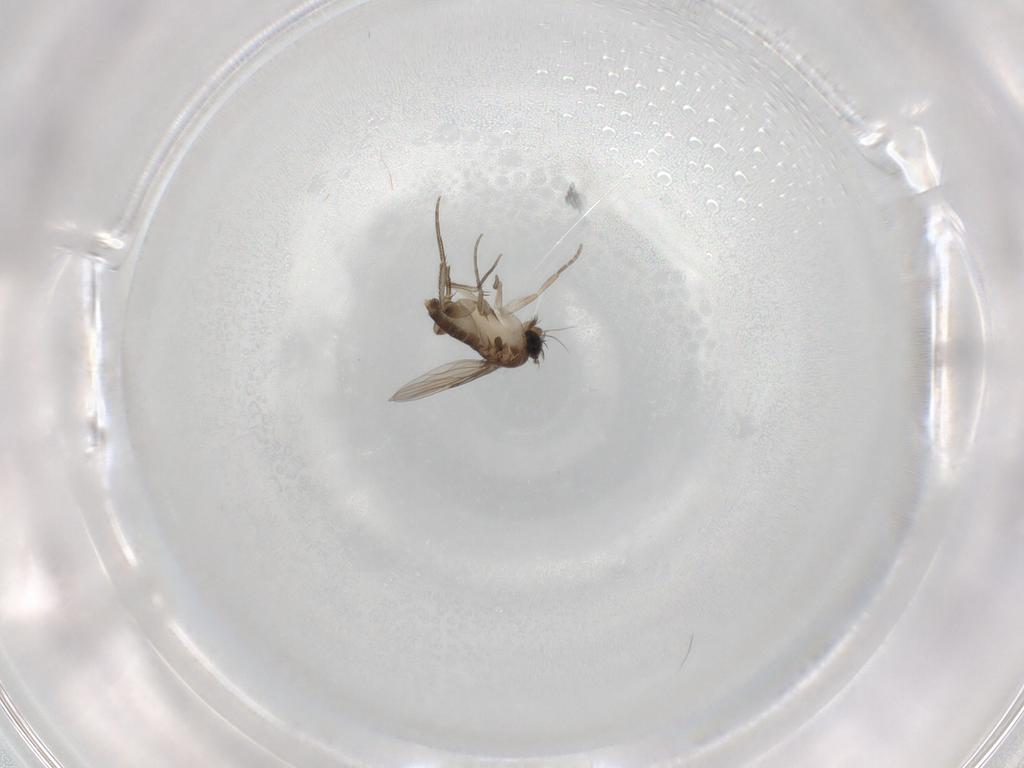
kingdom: Animalia
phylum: Arthropoda
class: Insecta
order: Diptera
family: Phoridae
